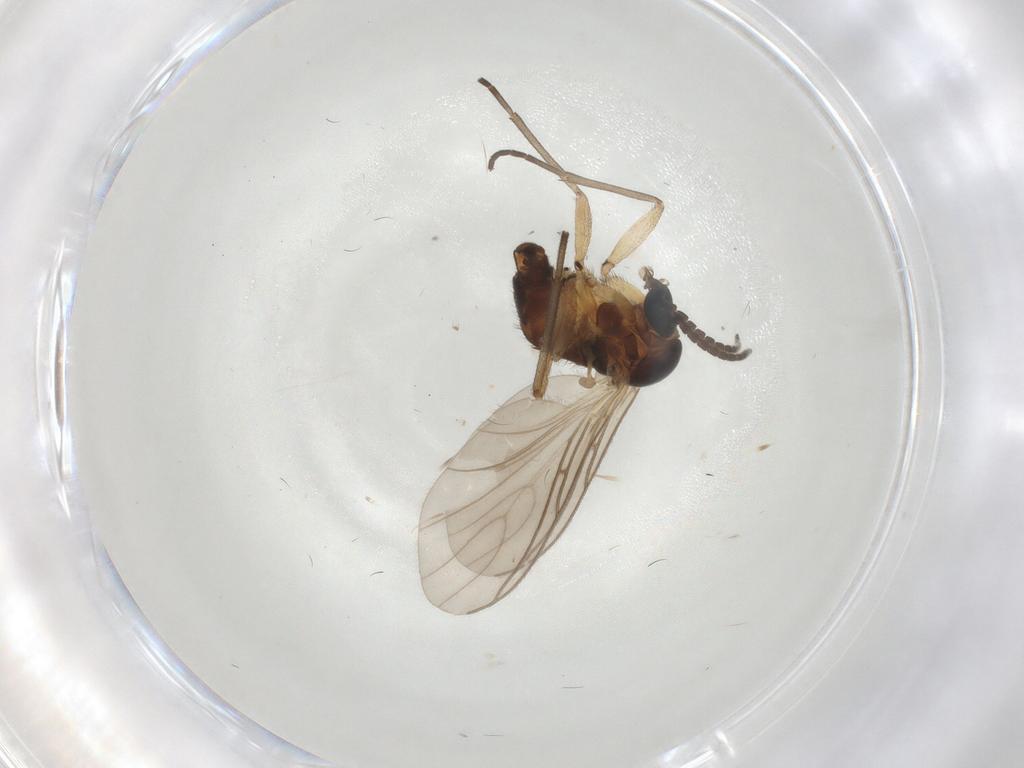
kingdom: Animalia
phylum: Arthropoda
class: Insecta
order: Diptera
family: Sciaridae
